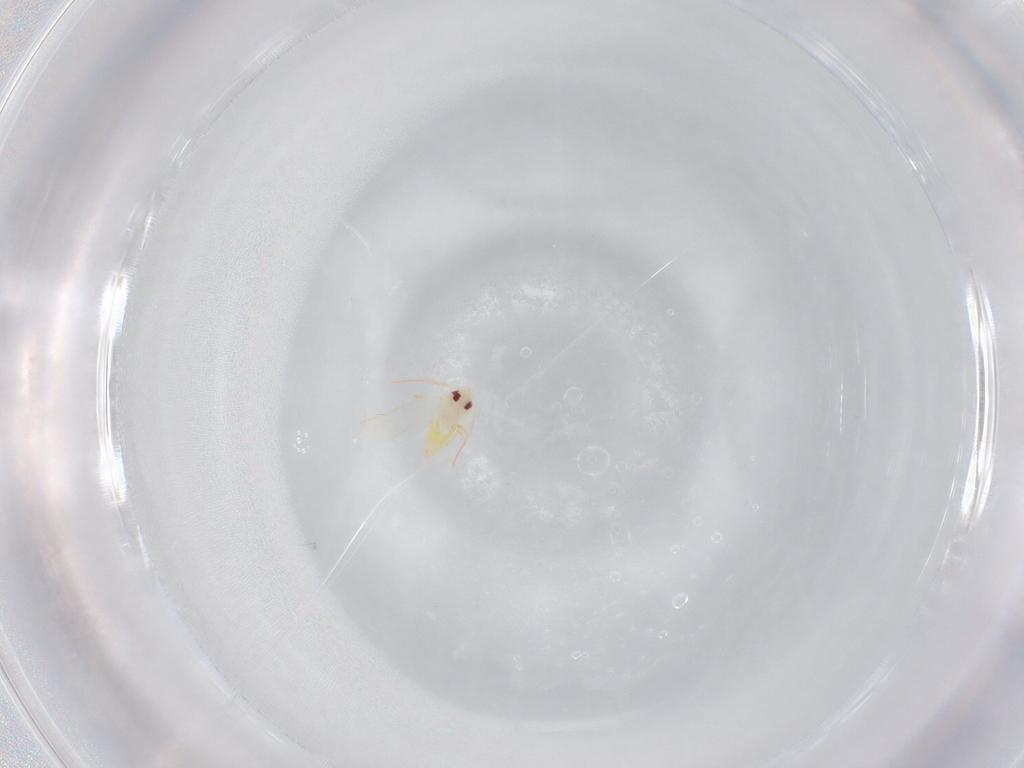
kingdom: Animalia
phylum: Arthropoda
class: Insecta
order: Hemiptera
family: Aleyrodidae
